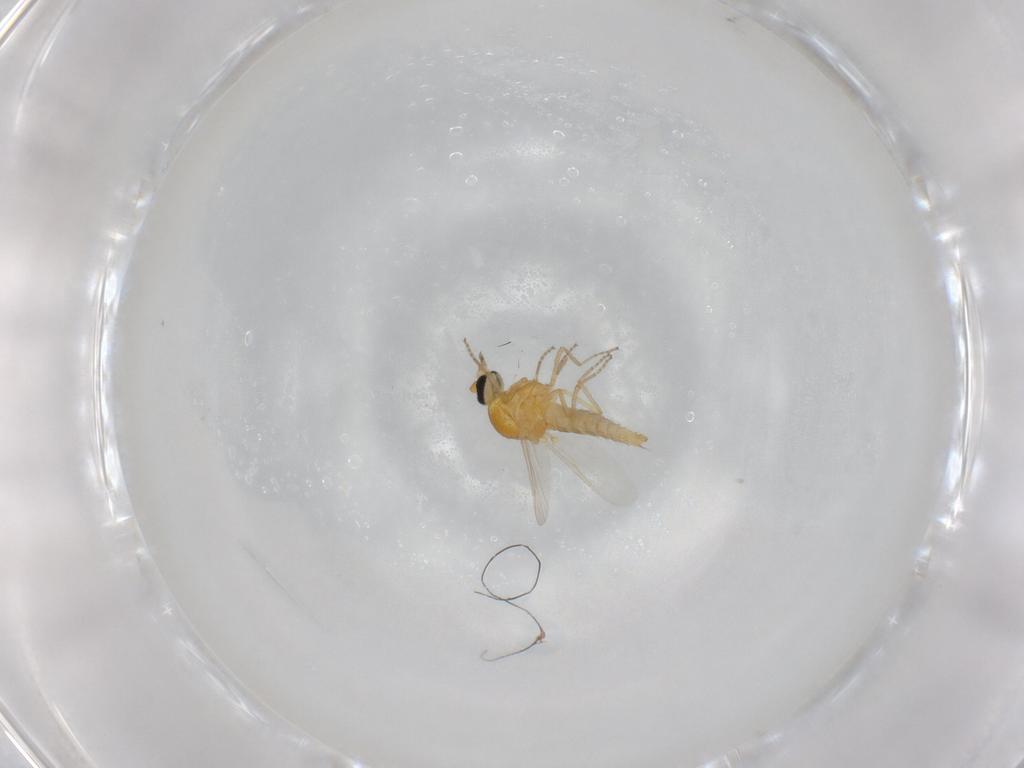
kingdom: Animalia
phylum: Arthropoda
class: Insecta
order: Diptera
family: Ceratopogonidae
